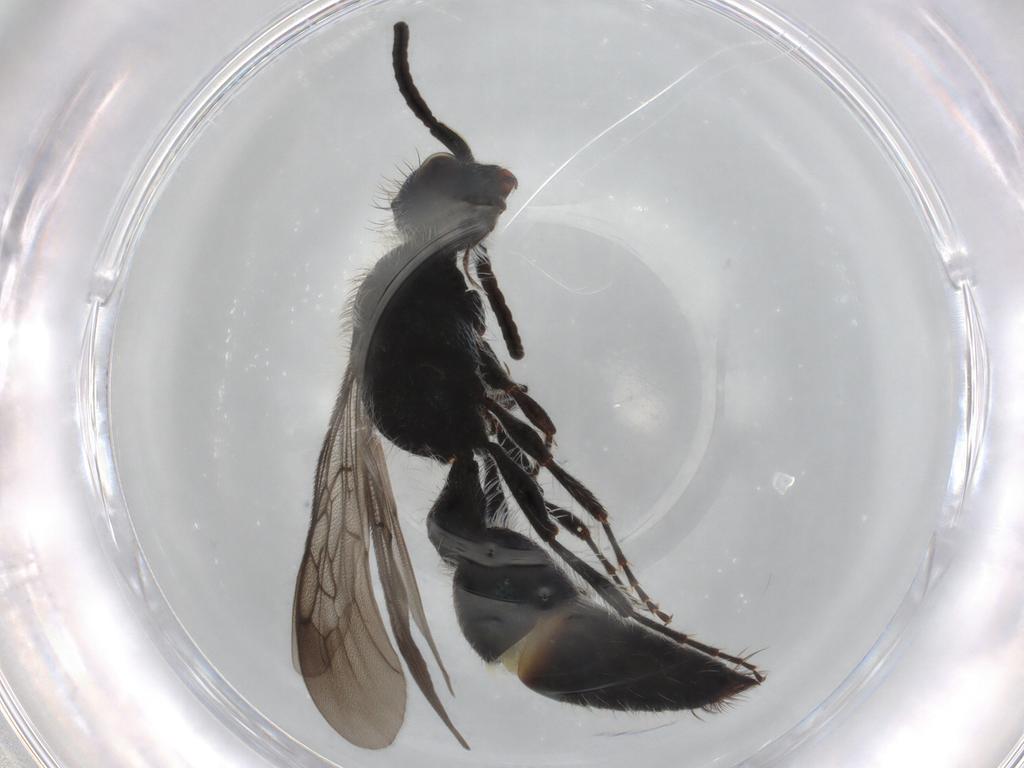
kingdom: Animalia
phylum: Arthropoda
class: Insecta
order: Hymenoptera
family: Mutillidae
